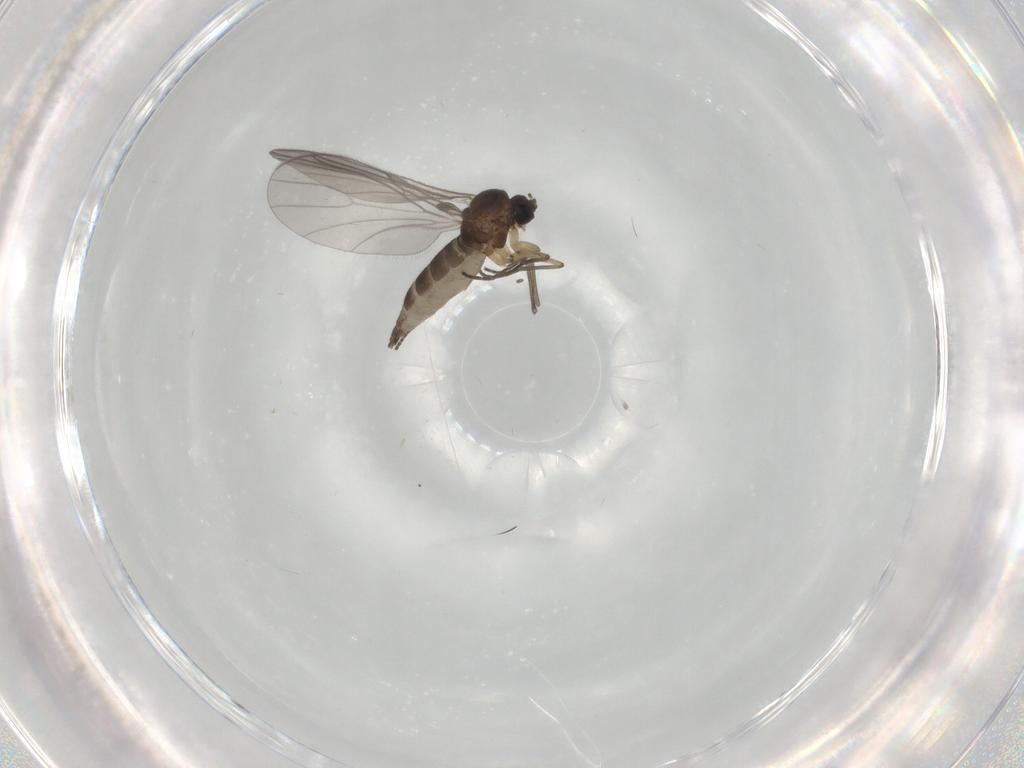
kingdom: Animalia
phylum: Arthropoda
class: Insecta
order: Diptera
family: Sciaridae
